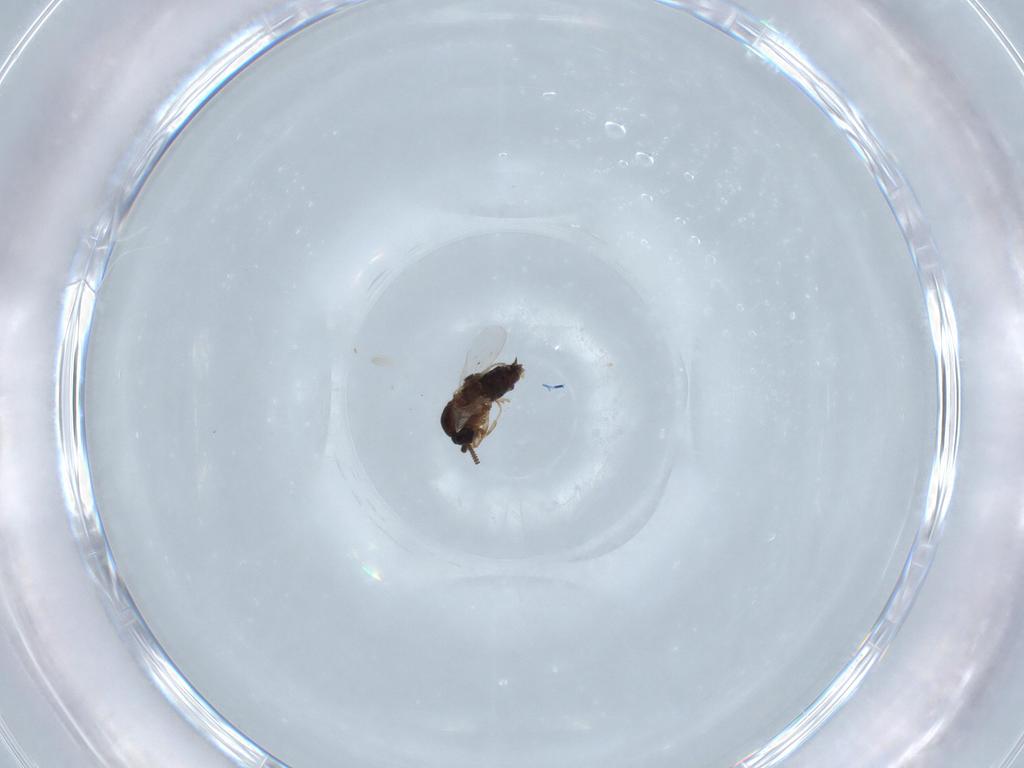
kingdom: Animalia
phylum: Arthropoda
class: Insecta
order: Diptera
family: Scatopsidae
